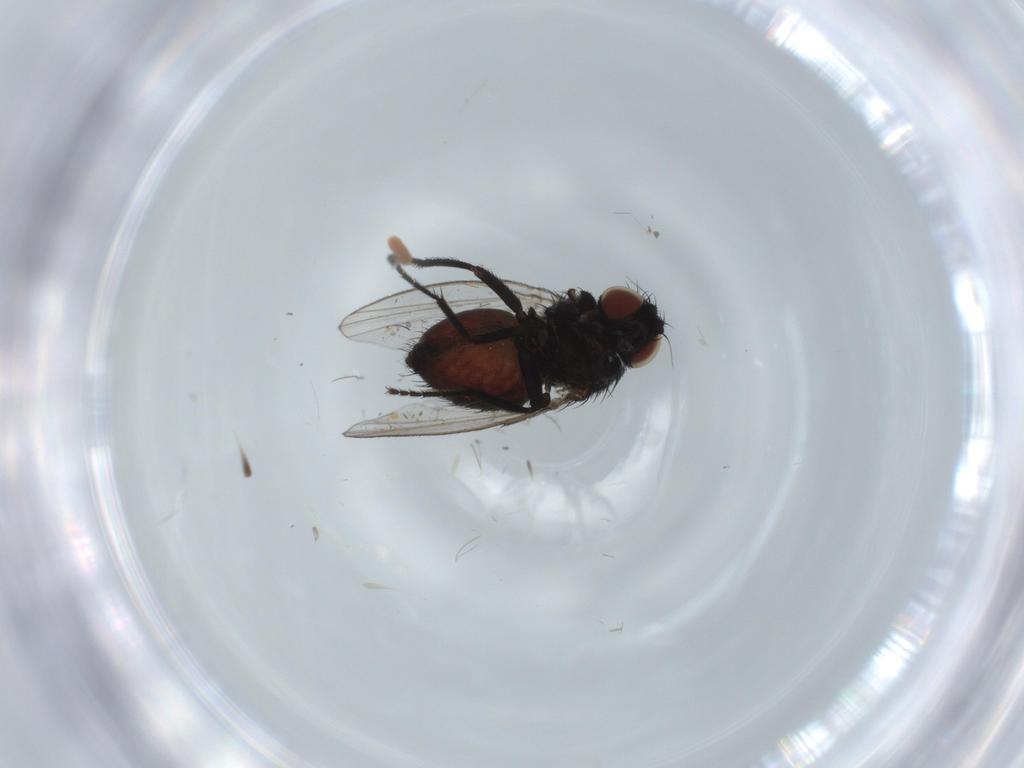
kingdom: Animalia
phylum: Arthropoda
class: Insecta
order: Diptera
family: Milichiidae
